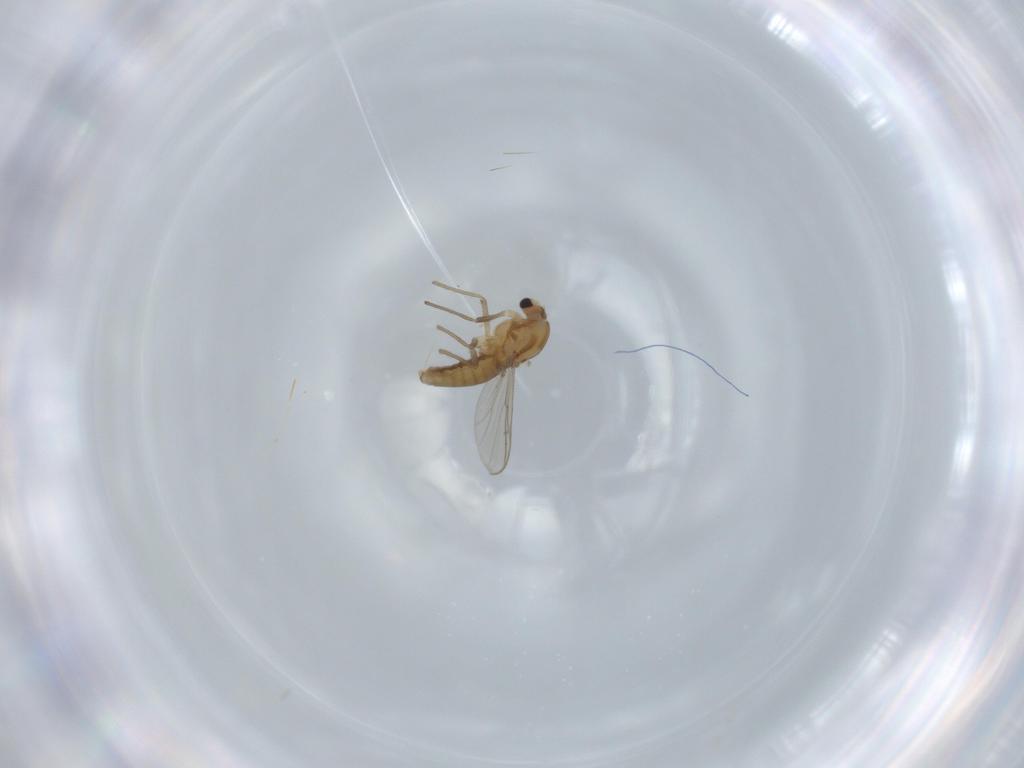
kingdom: Animalia
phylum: Arthropoda
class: Insecta
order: Diptera
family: Chironomidae
